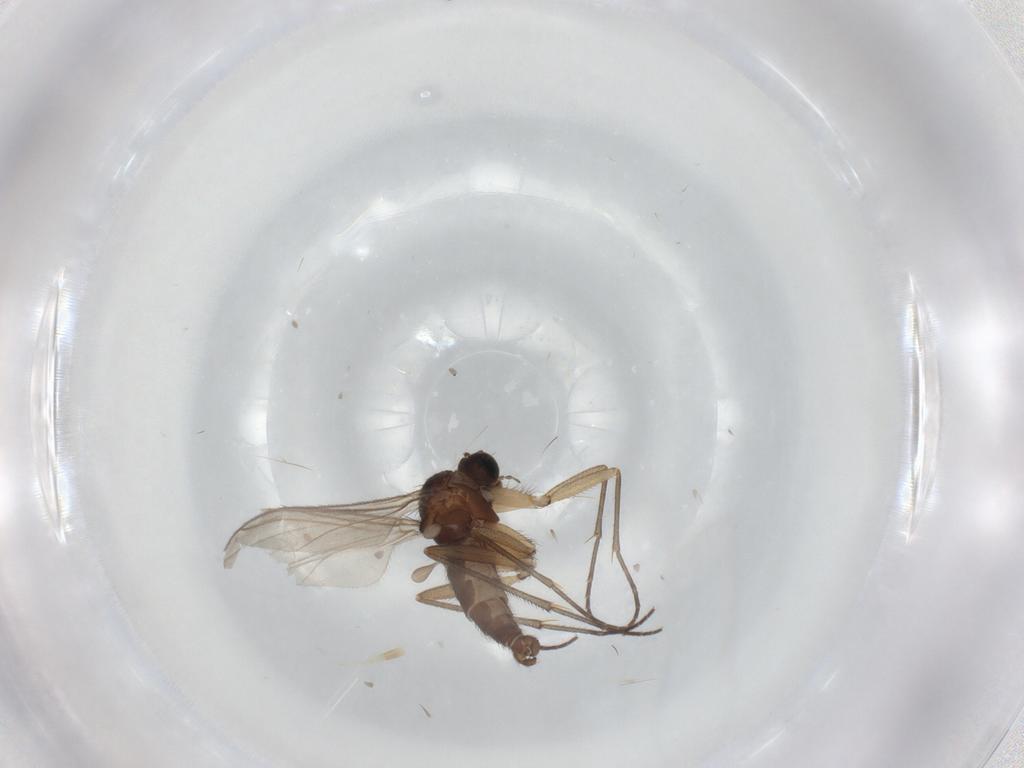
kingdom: Animalia
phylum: Arthropoda
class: Insecta
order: Diptera
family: Sciaridae
